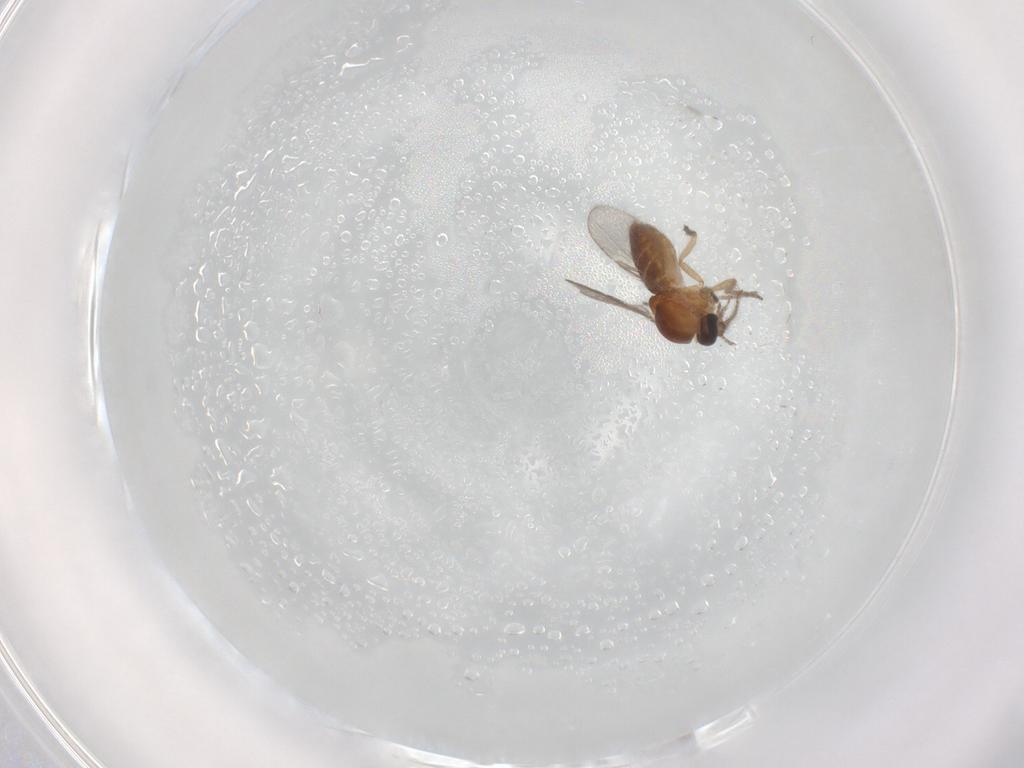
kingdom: Animalia
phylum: Arthropoda
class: Insecta
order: Diptera
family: Ceratopogonidae
